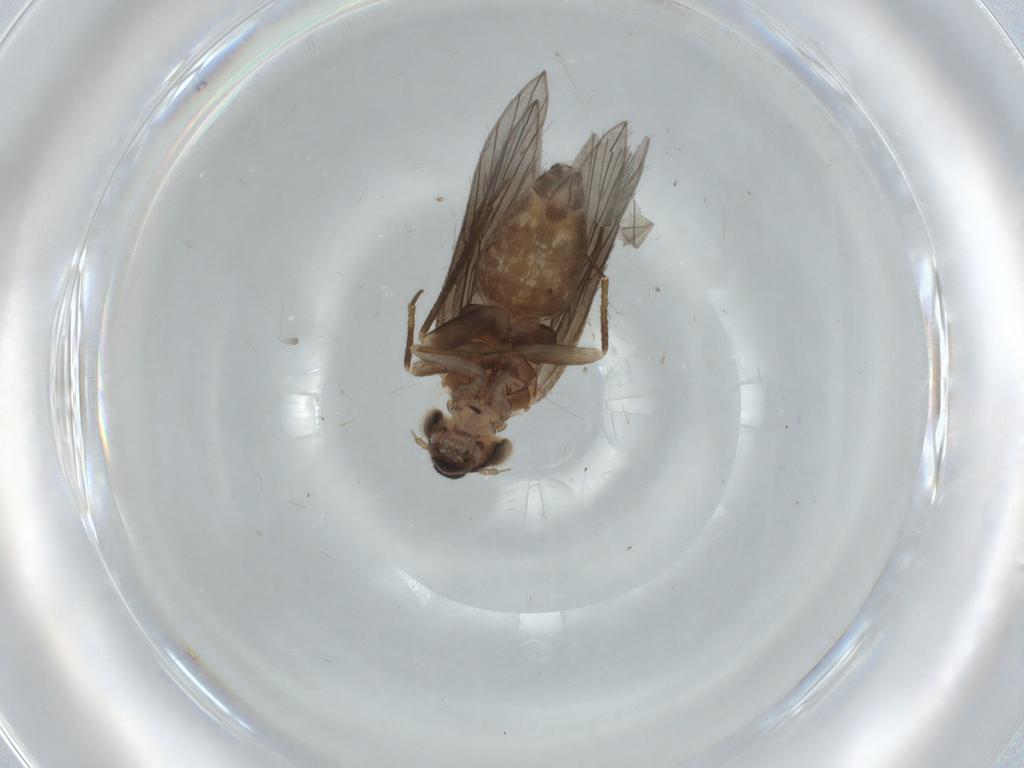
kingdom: Animalia
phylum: Arthropoda
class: Insecta
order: Psocodea
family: Lepidopsocidae
